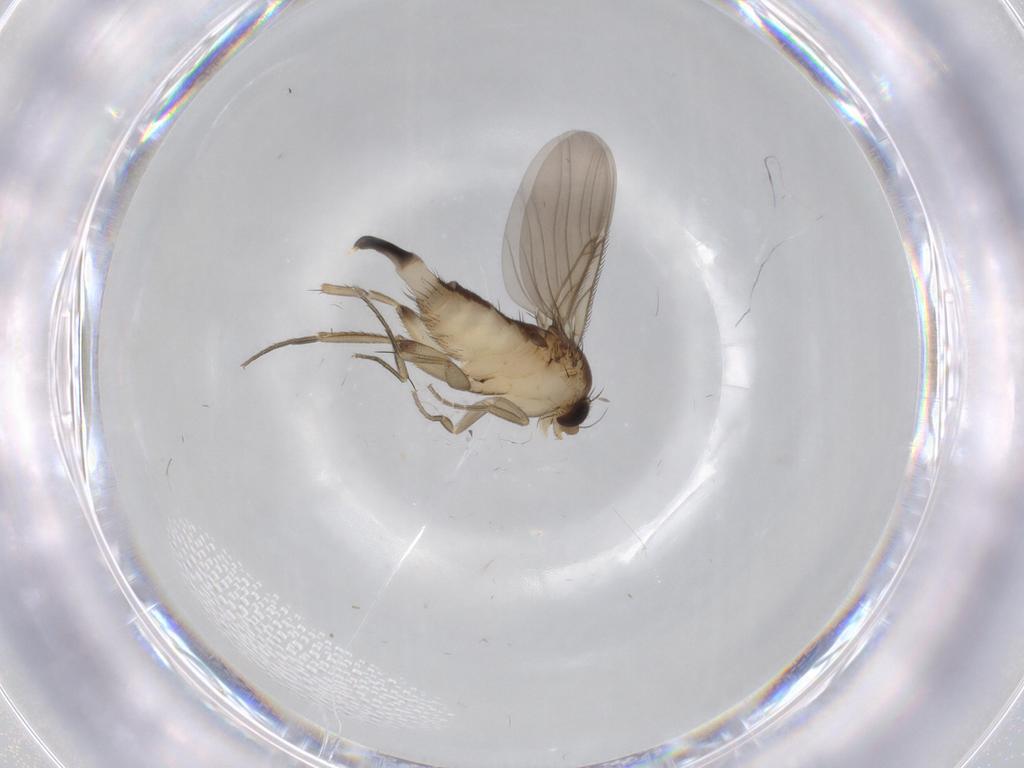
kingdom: Animalia
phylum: Arthropoda
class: Insecta
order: Diptera
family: Phoridae
